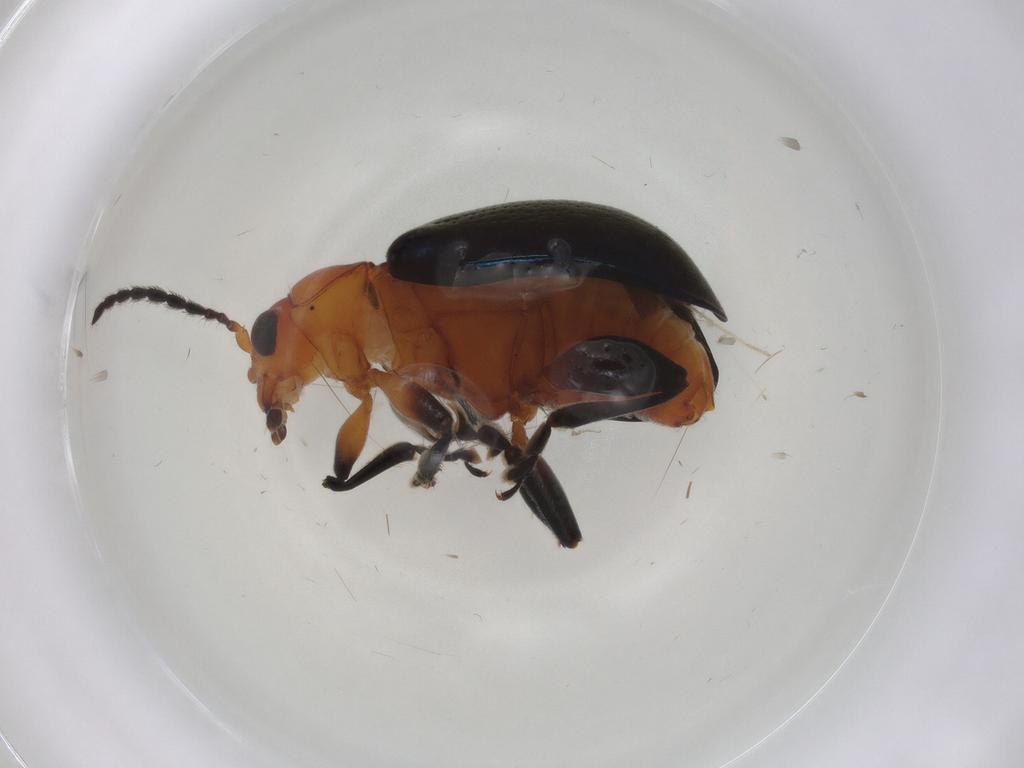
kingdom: Animalia
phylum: Arthropoda
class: Insecta
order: Coleoptera
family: Chrysomelidae
